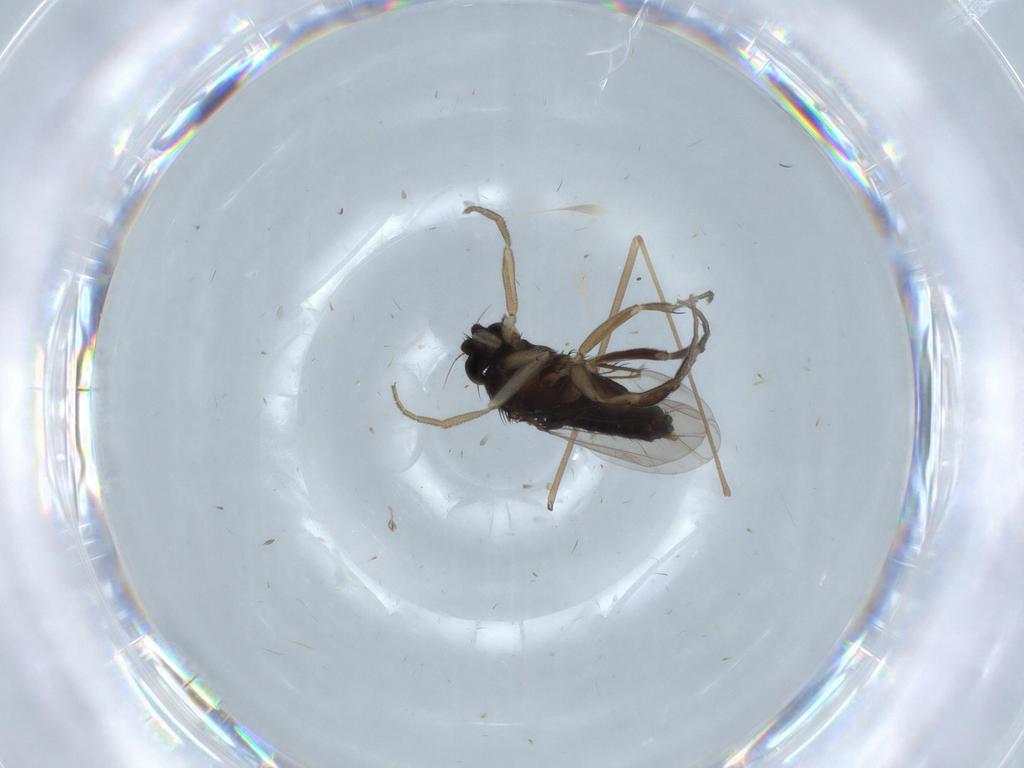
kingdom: Animalia
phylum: Arthropoda
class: Insecta
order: Diptera
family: Phoridae
